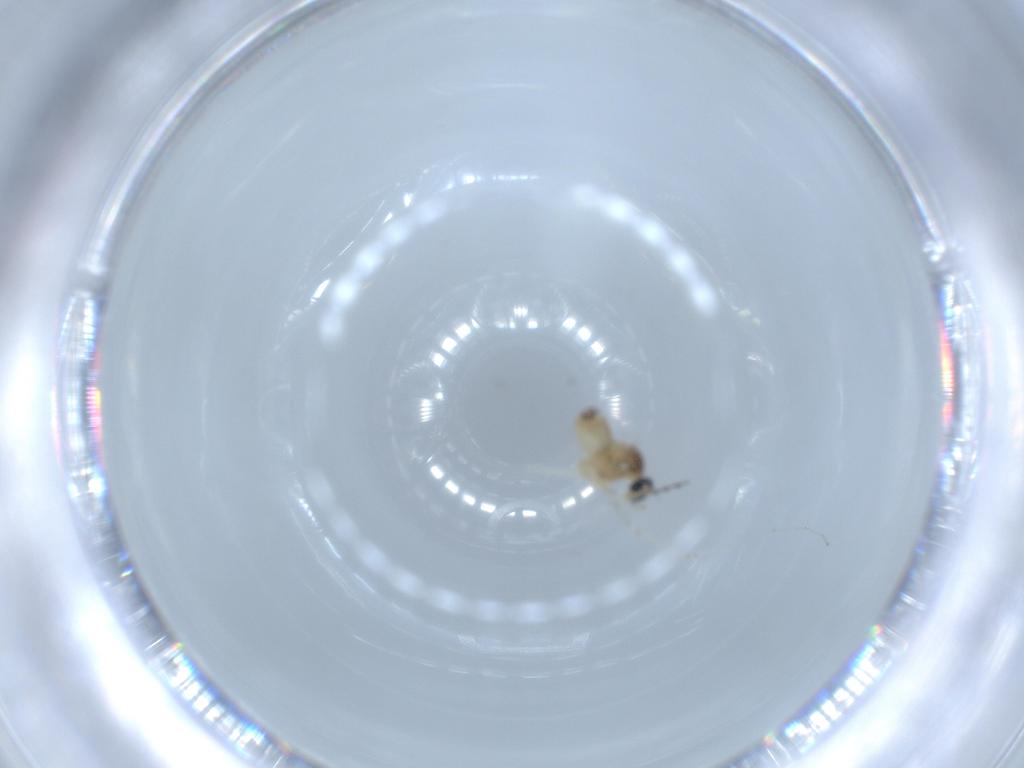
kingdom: Animalia
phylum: Arthropoda
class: Insecta
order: Diptera
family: Cecidomyiidae
